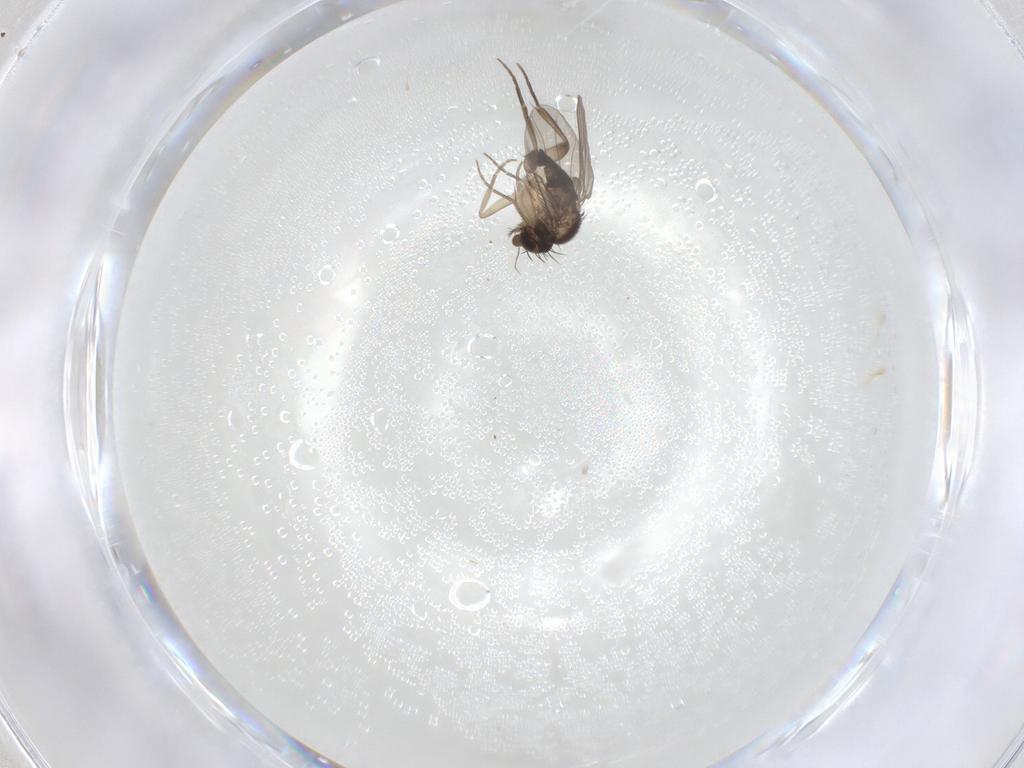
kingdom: Animalia
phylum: Arthropoda
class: Insecta
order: Diptera
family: Phoridae
